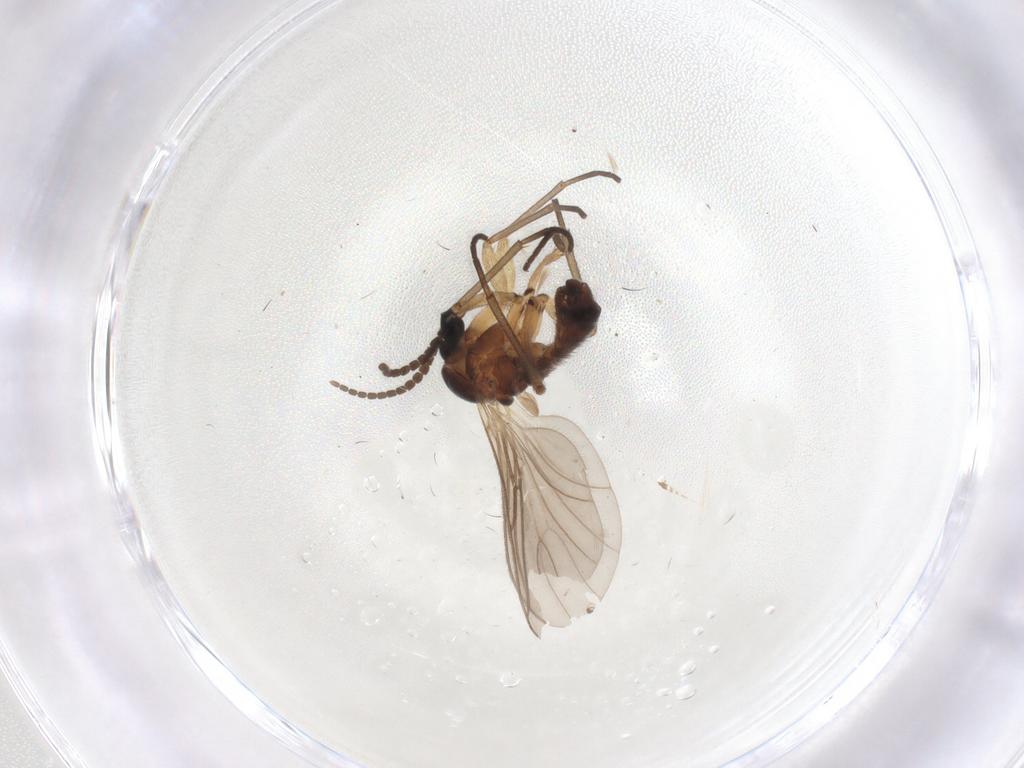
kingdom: Animalia
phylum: Arthropoda
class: Insecta
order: Diptera
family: Sciaridae
